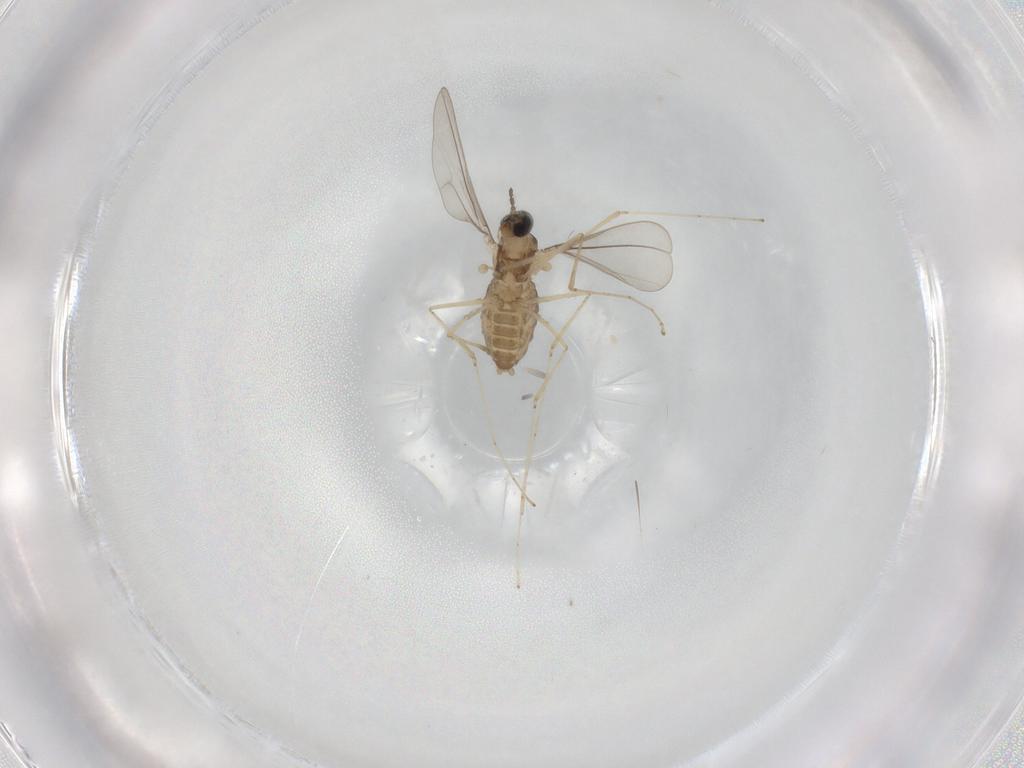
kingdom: Animalia
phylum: Arthropoda
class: Insecta
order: Diptera
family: Cecidomyiidae
